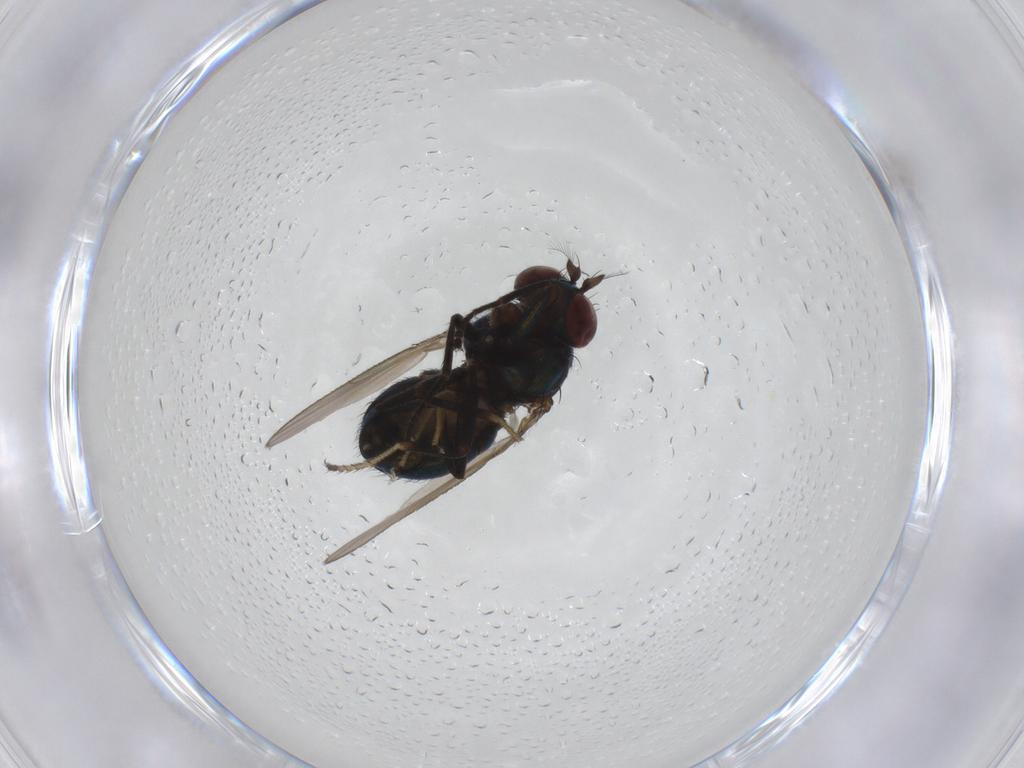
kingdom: Animalia
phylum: Arthropoda
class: Insecta
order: Diptera
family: Ephydridae
